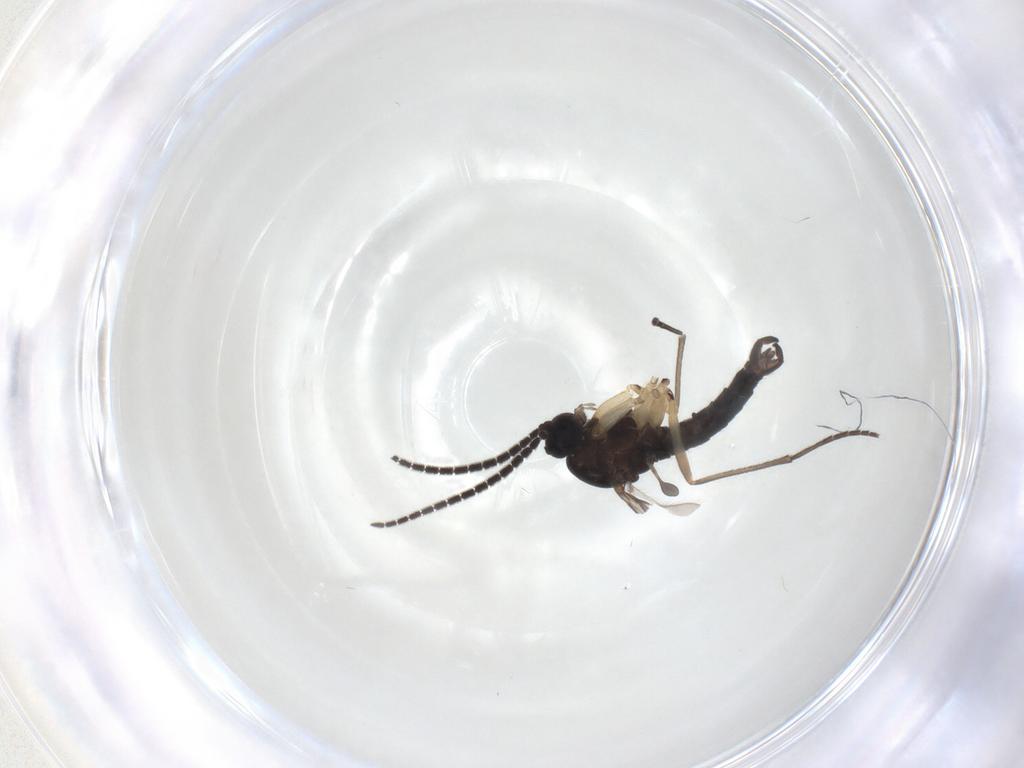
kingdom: Animalia
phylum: Arthropoda
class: Insecta
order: Diptera
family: Sciaridae
